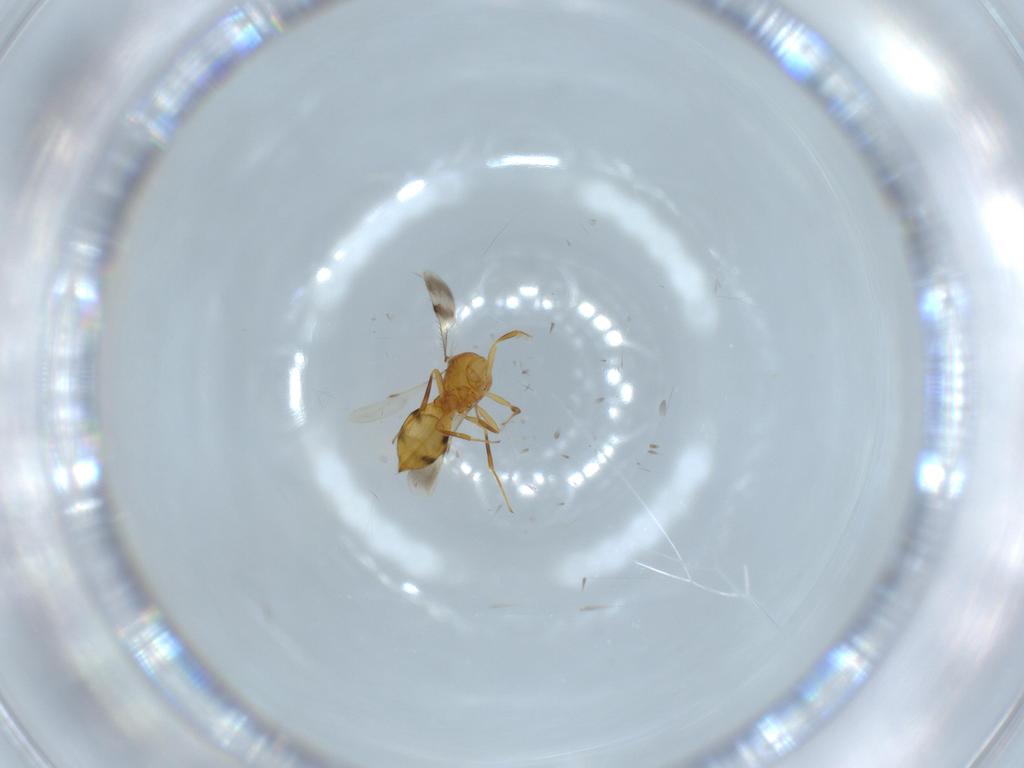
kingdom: Animalia
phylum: Arthropoda
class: Insecta
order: Hymenoptera
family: Scelionidae
